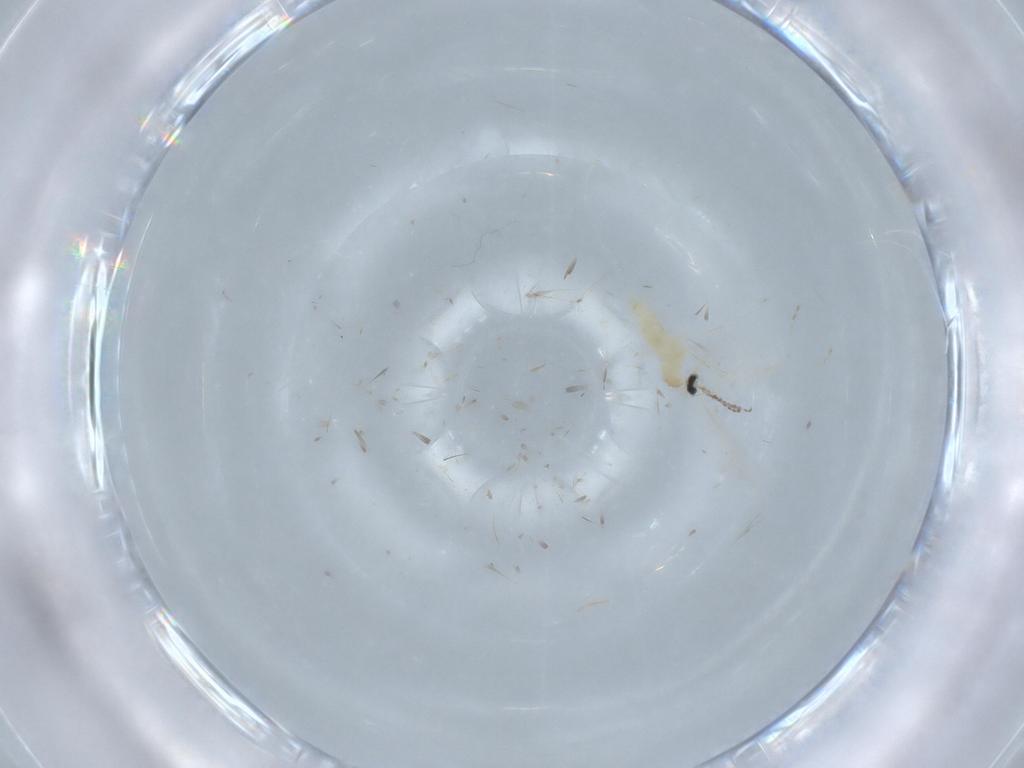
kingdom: Animalia
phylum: Arthropoda
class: Insecta
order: Diptera
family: Cecidomyiidae
